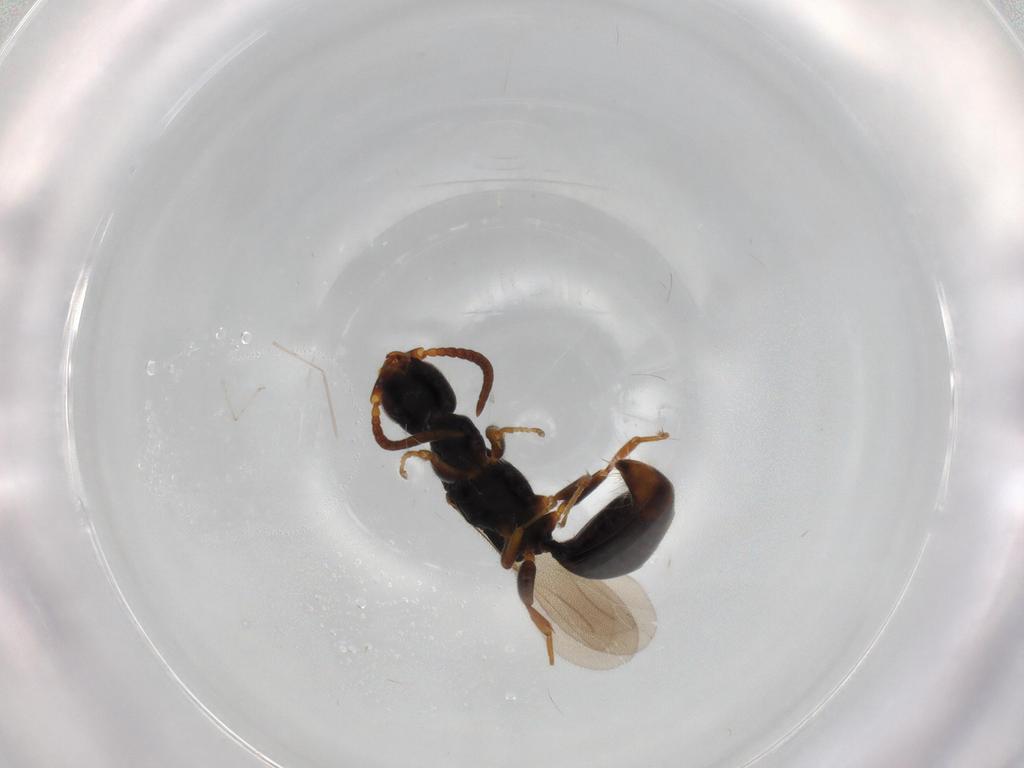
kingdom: Animalia
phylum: Arthropoda
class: Insecta
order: Hymenoptera
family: Bethylidae
